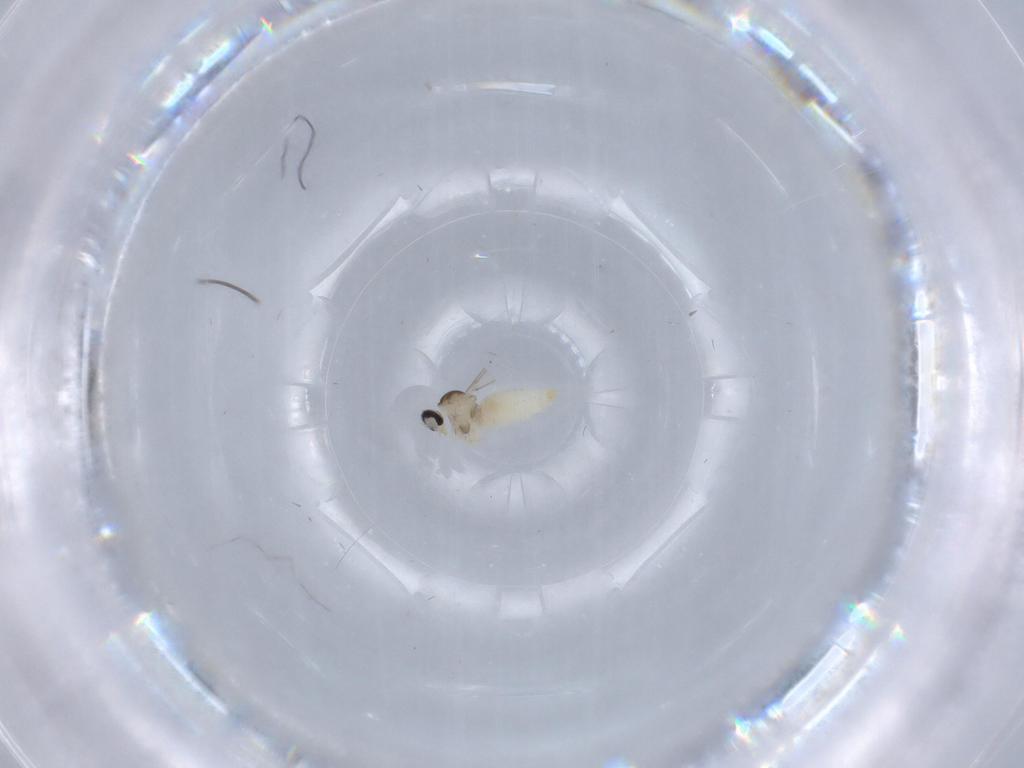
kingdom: Animalia
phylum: Arthropoda
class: Insecta
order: Diptera
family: Cecidomyiidae
